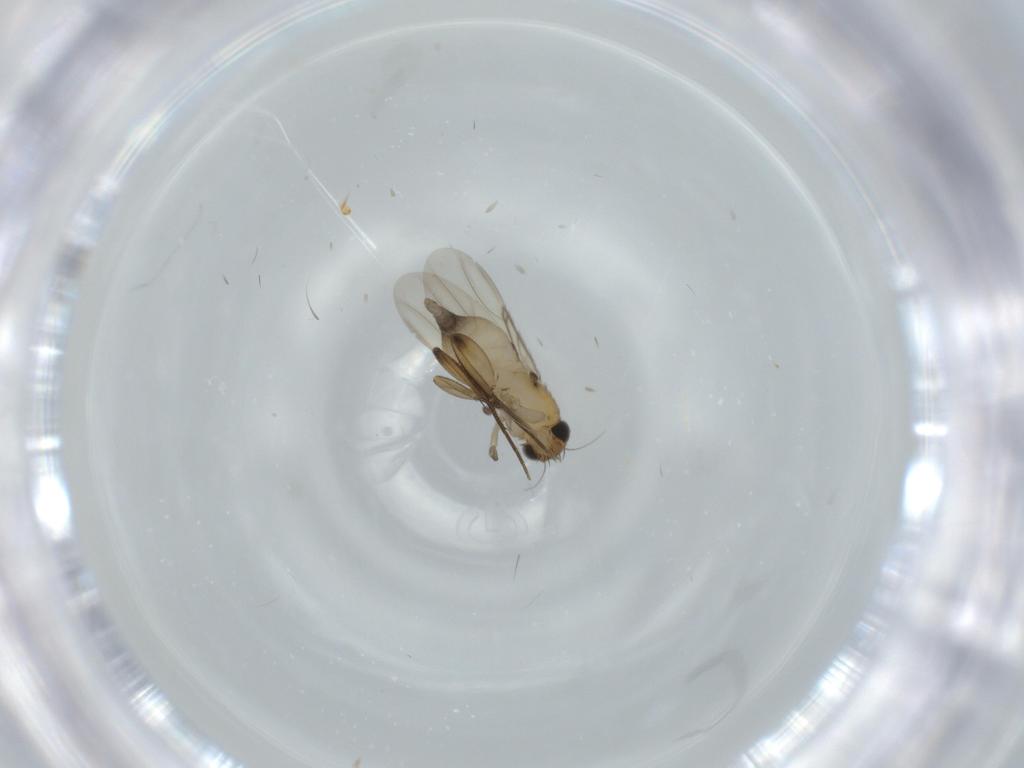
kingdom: Animalia
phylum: Arthropoda
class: Insecta
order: Diptera
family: Phoridae
